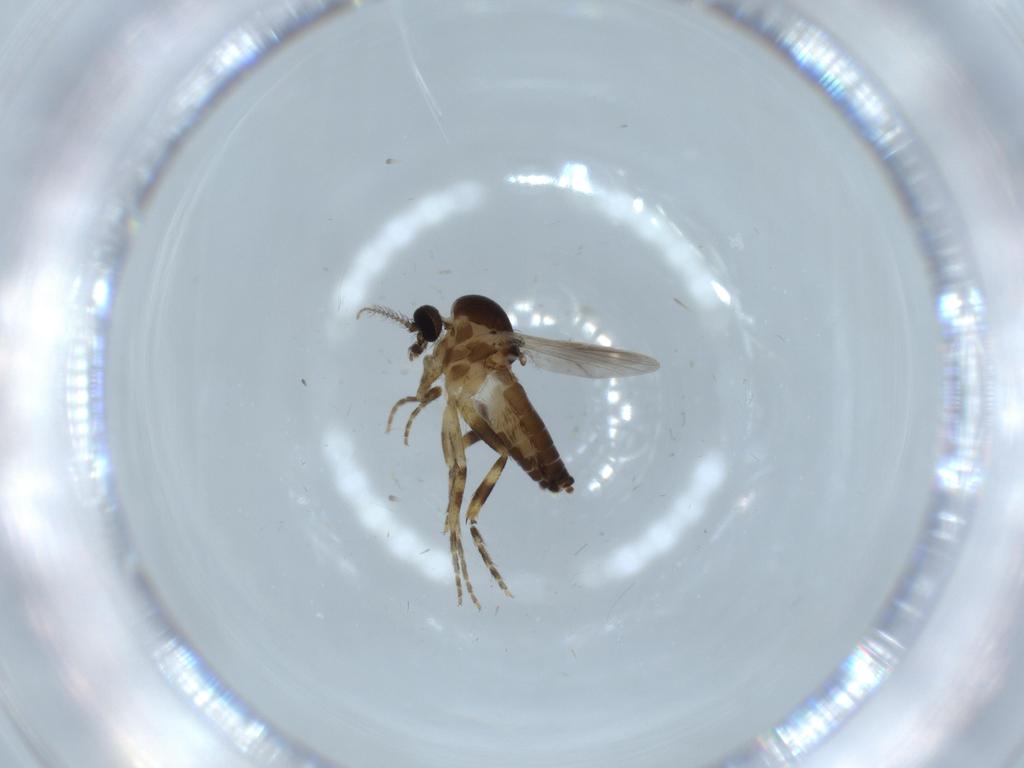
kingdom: Animalia
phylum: Arthropoda
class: Insecta
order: Diptera
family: Ceratopogonidae
